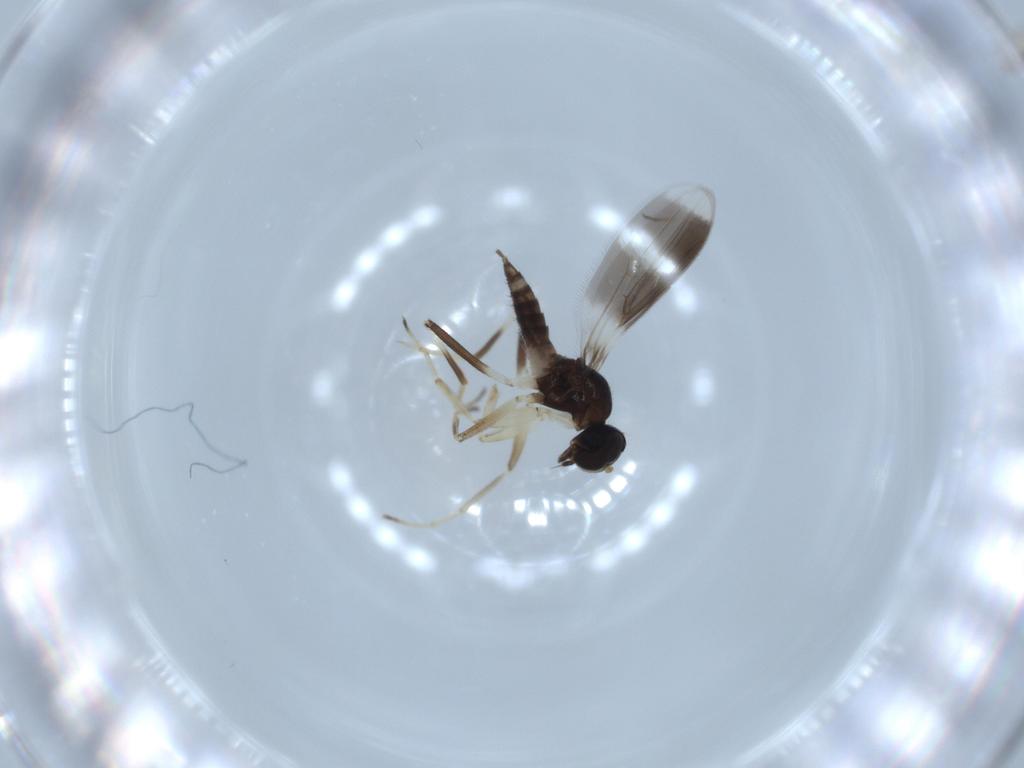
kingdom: Animalia
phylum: Arthropoda
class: Insecta
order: Diptera
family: Hybotidae
